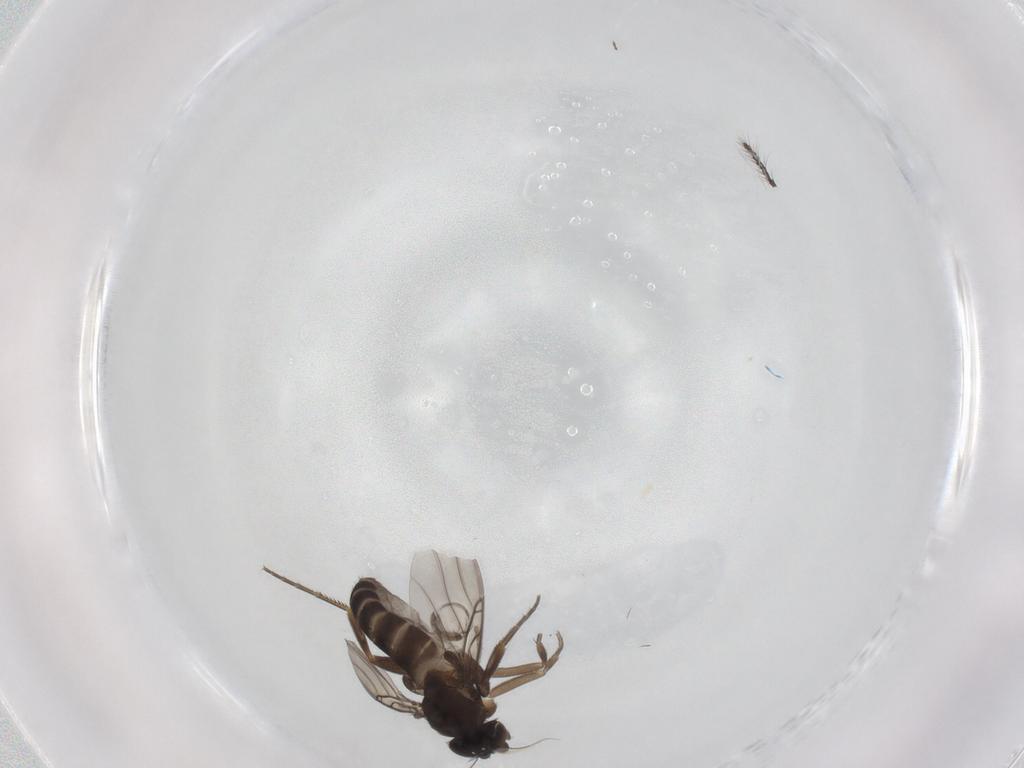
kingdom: Animalia
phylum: Arthropoda
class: Insecta
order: Diptera
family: Phoridae
